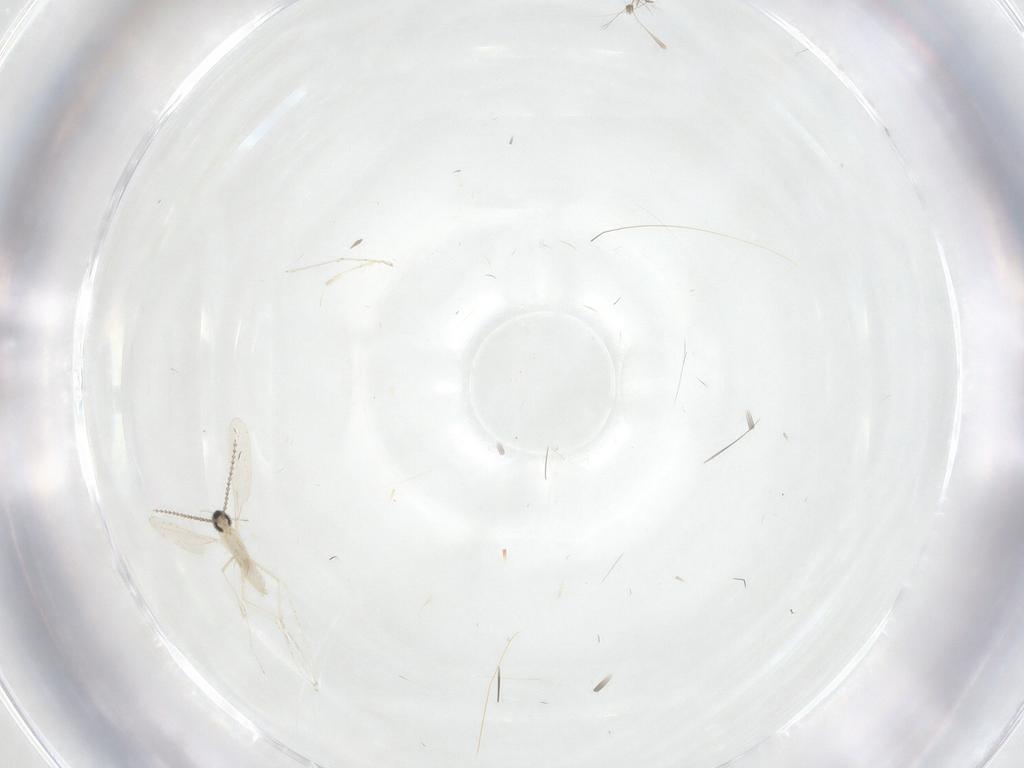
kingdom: Animalia
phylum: Arthropoda
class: Insecta
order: Diptera
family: Cecidomyiidae
